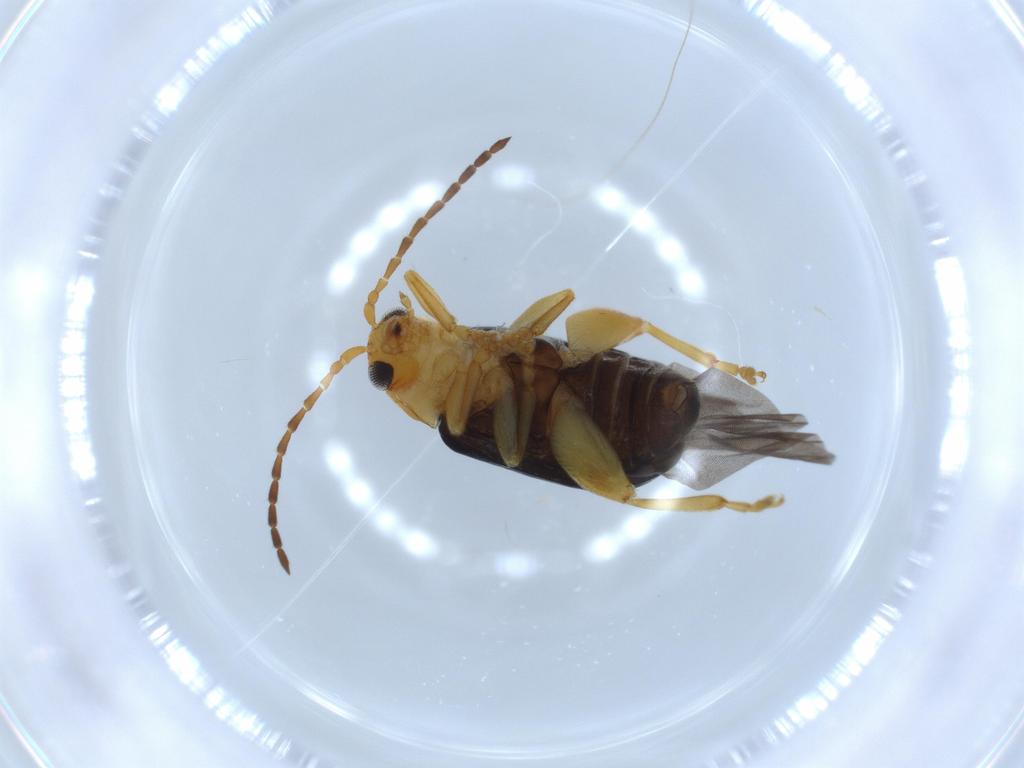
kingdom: Animalia
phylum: Arthropoda
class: Insecta
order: Coleoptera
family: Chrysomelidae
